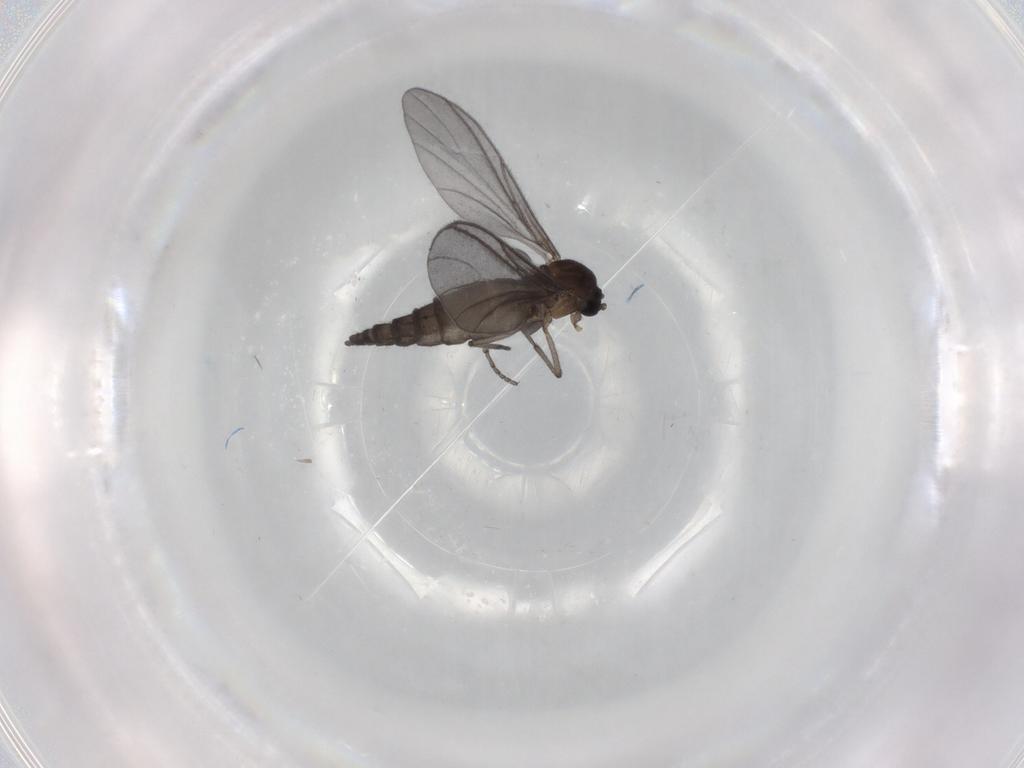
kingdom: Animalia
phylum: Arthropoda
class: Insecta
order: Diptera
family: Sciaridae
